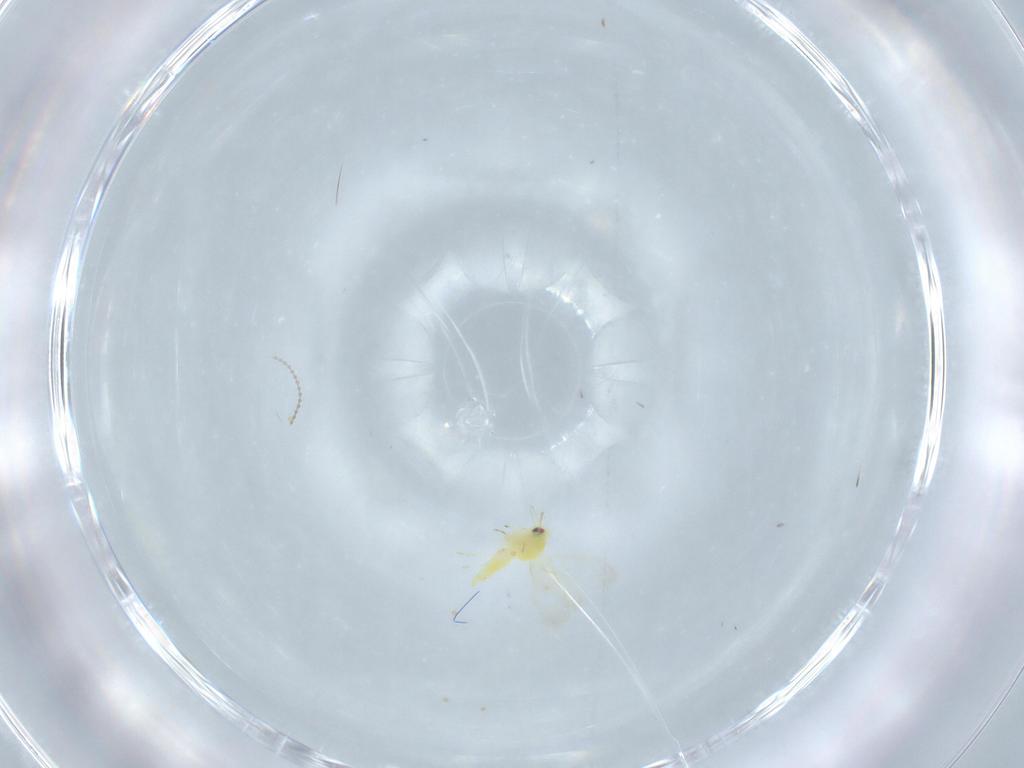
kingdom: Animalia
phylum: Arthropoda
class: Insecta
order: Hemiptera
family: Aleyrodidae
